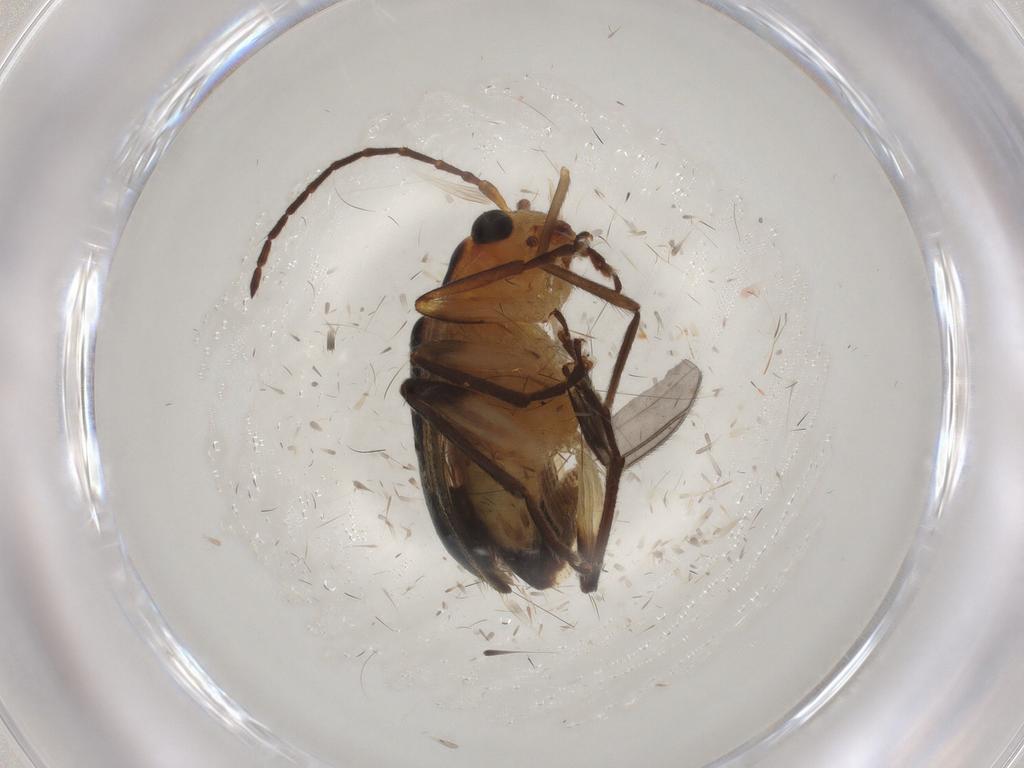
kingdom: Animalia
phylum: Arthropoda
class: Insecta
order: Coleoptera
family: Chrysomelidae
